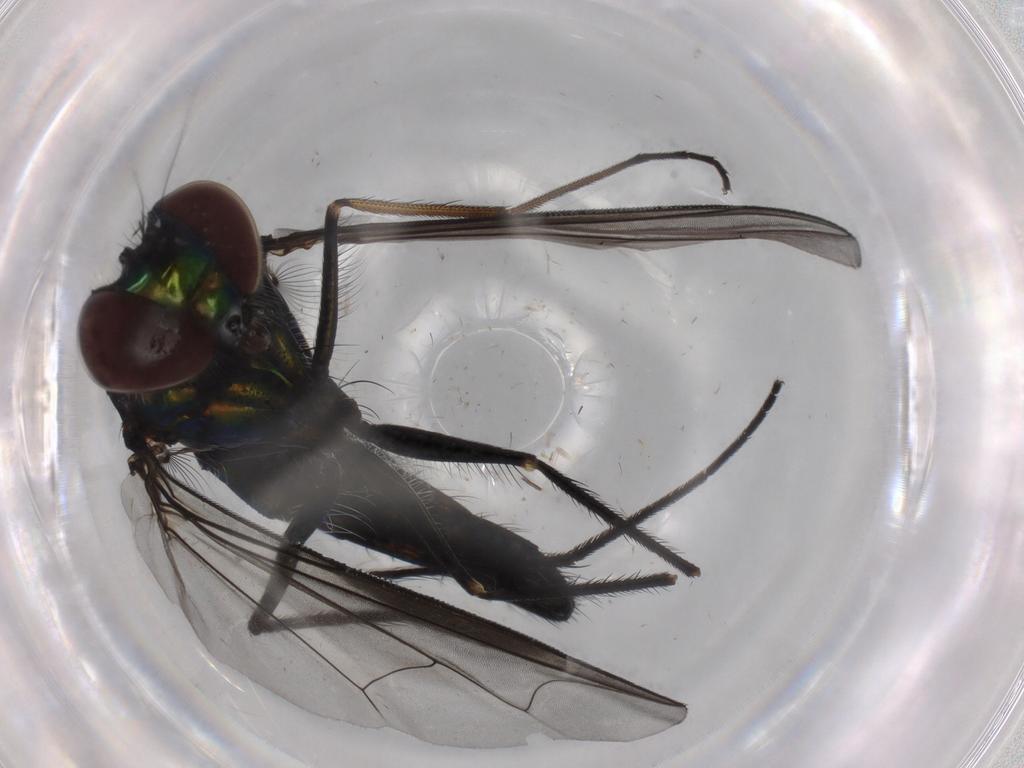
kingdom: Animalia
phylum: Arthropoda
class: Insecta
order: Diptera
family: Dolichopodidae
